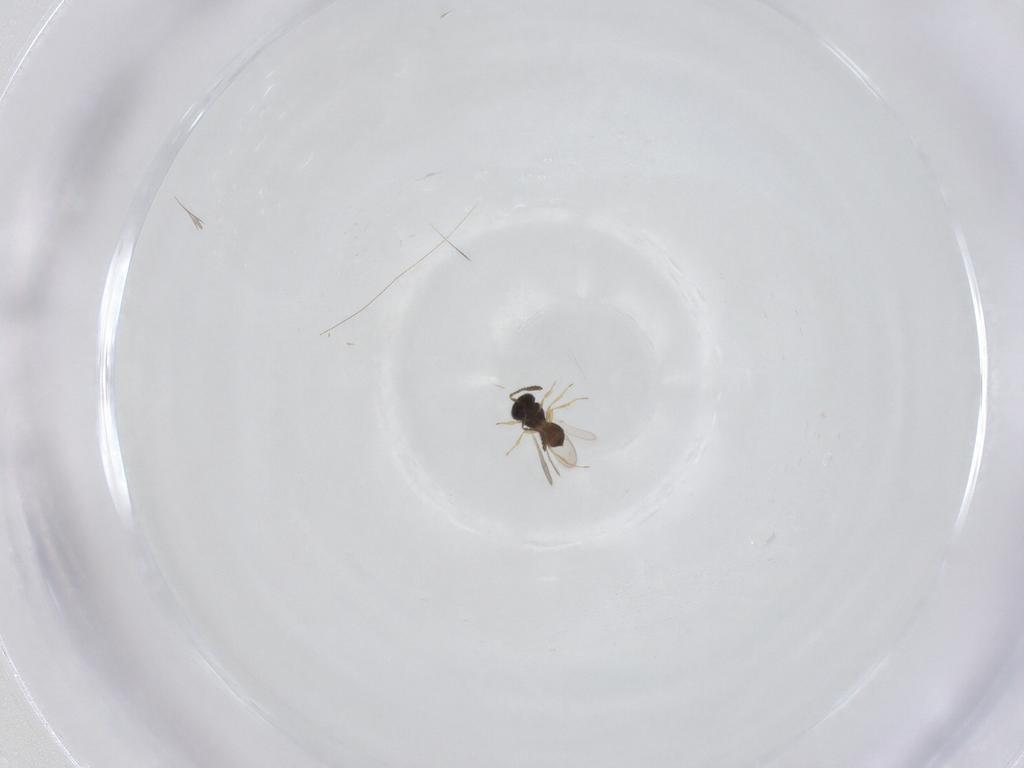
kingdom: Animalia
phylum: Arthropoda
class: Insecta
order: Hymenoptera
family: Scelionidae
